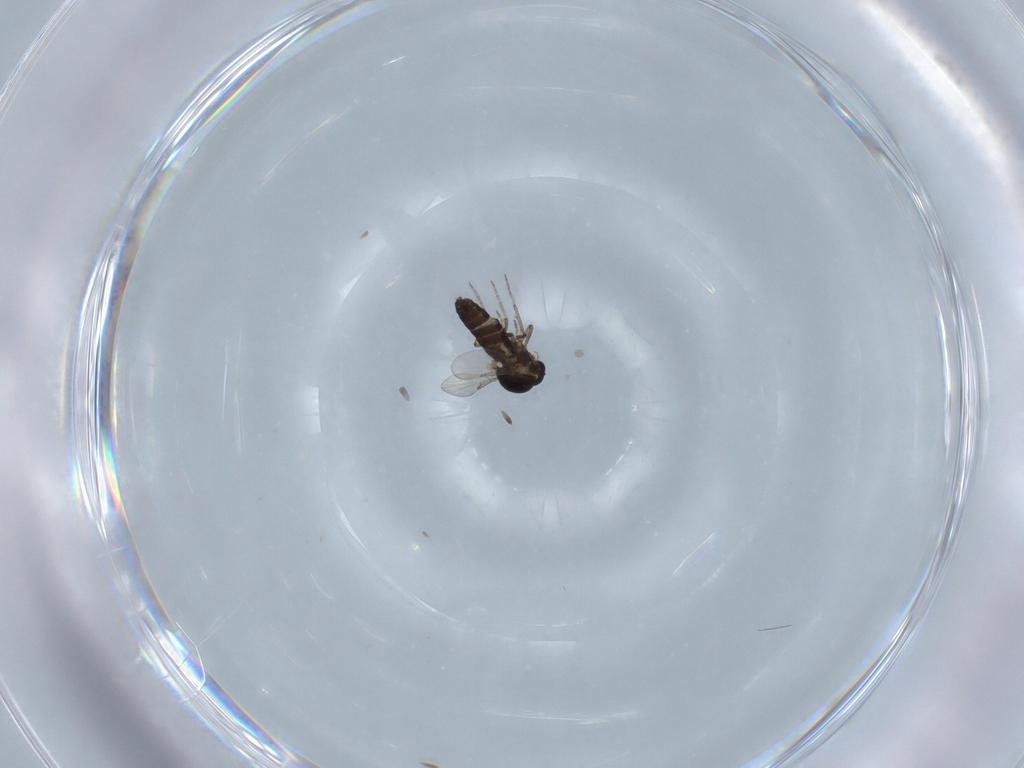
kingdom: Animalia
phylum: Arthropoda
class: Insecta
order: Diptera
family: Ceratopogonidae
